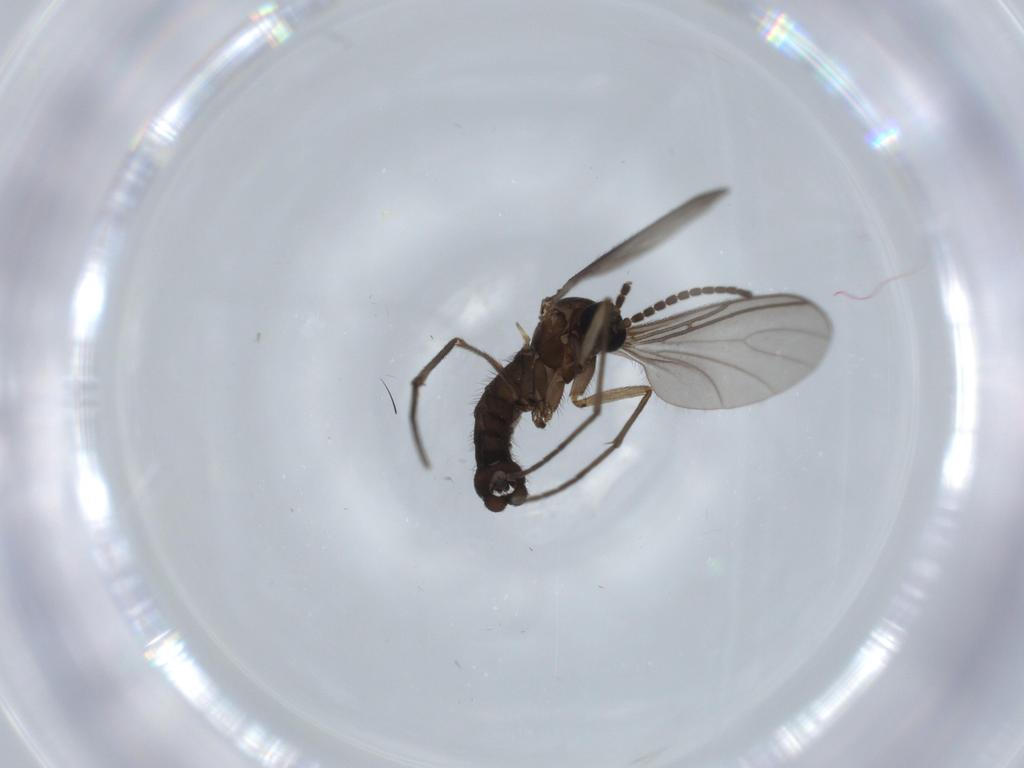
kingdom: Animalia
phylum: Arthropoda
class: Insecta
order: Diptera
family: Sciaridae
